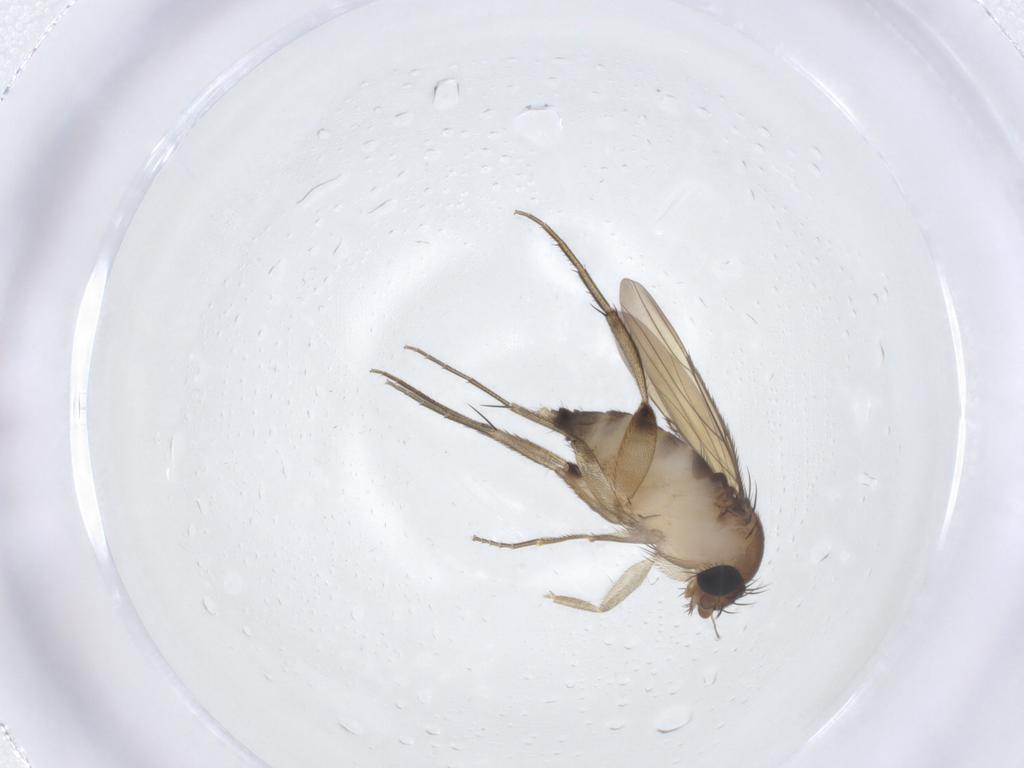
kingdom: Animalia
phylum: Arthropoda
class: Insecta
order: Diptera
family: Phoridae
